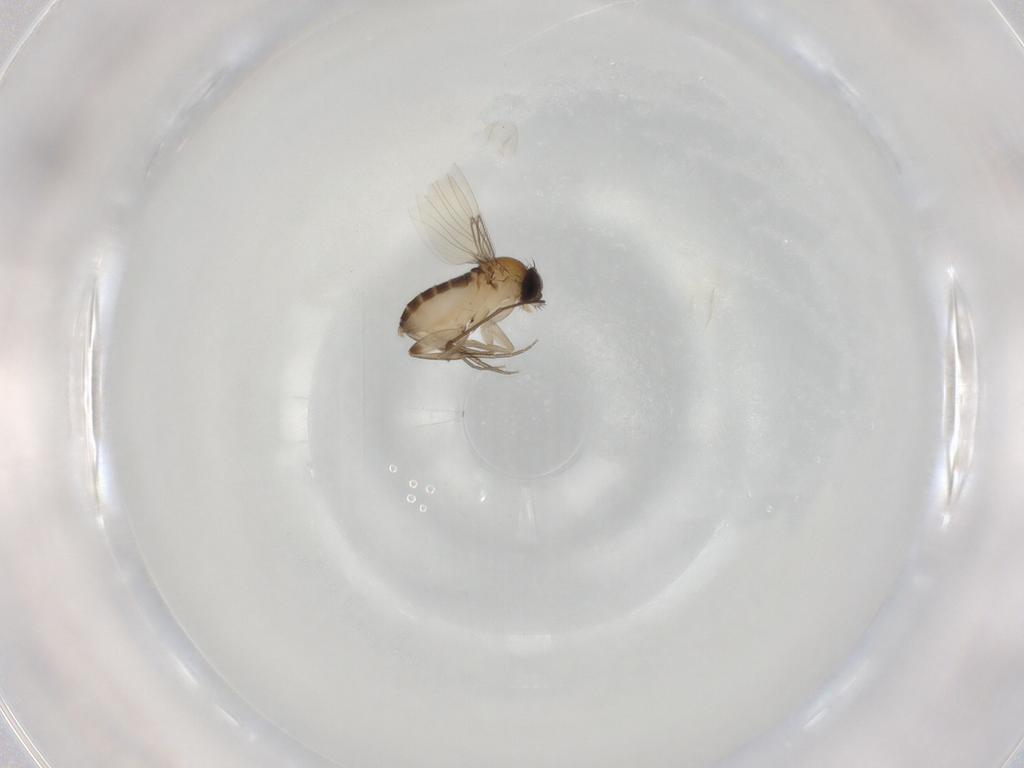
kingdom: Animalia
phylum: Arthropoda
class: Insecta
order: Diptera
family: Phoridae
